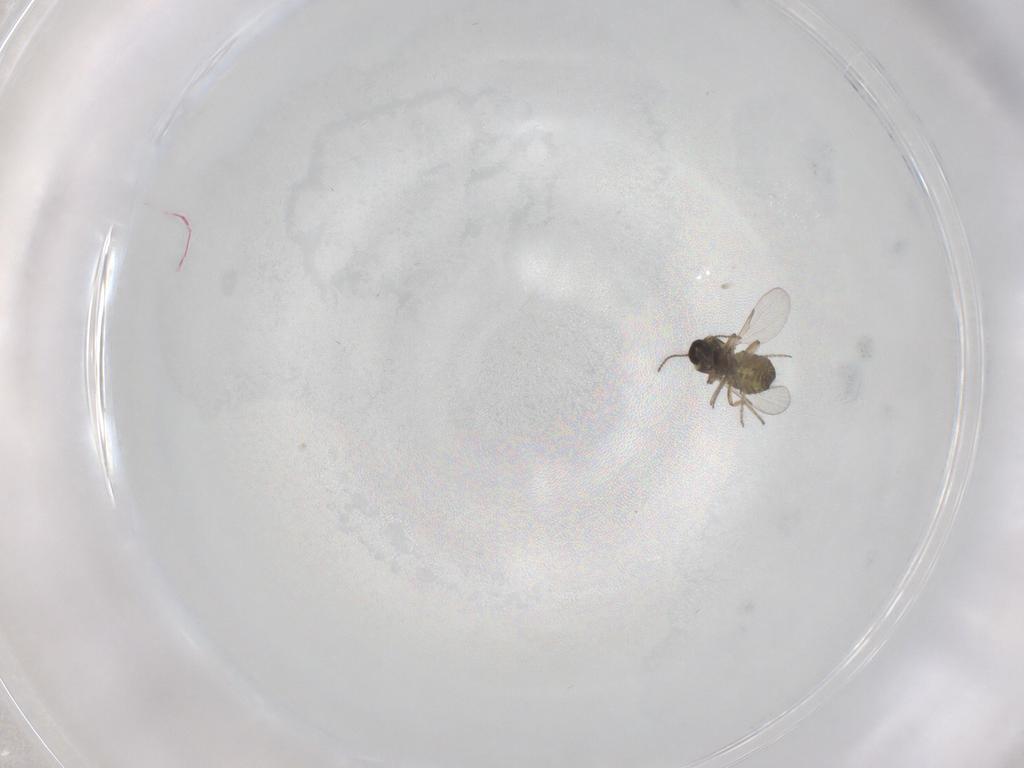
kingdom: Animalia
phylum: Arthropoda
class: Insecta
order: Diptera
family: Ceratopogonidae
